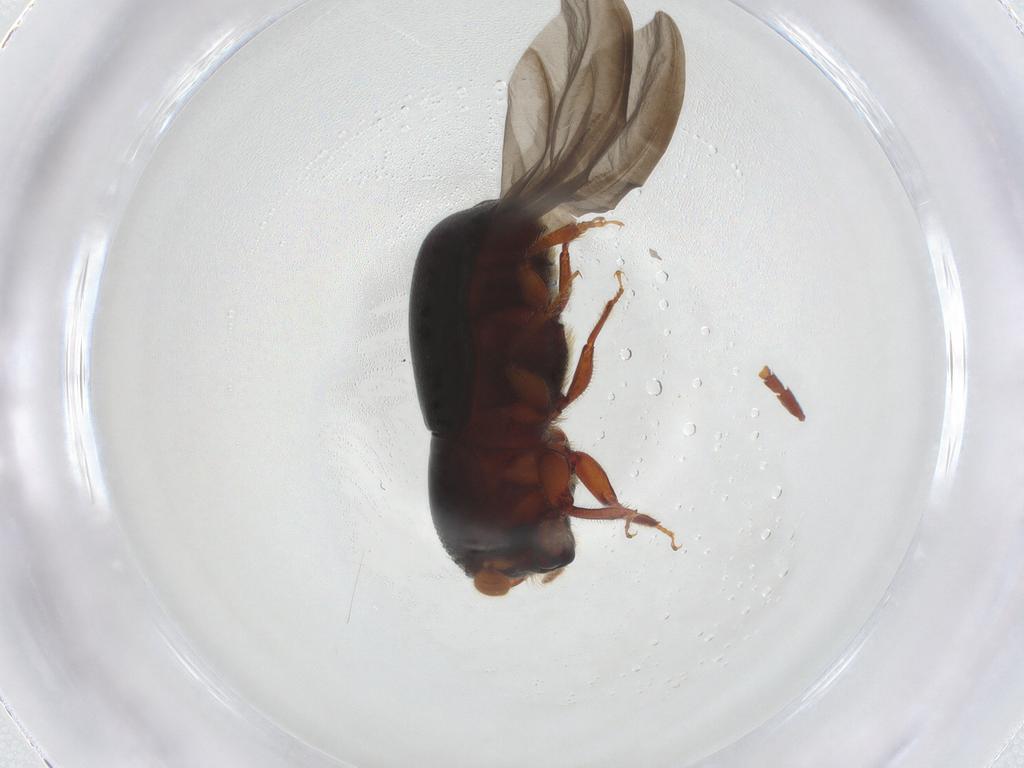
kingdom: Animalia
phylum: Arthropoda
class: Insecta
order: Coleoptera
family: Curculionidae
